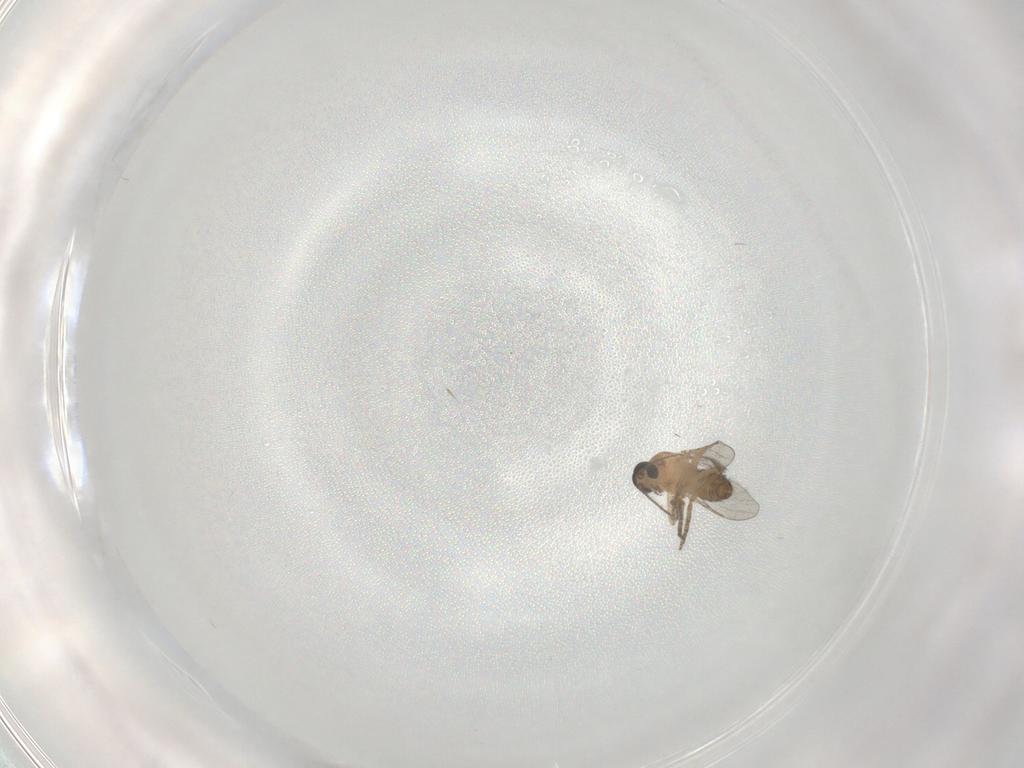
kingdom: Animalia
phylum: Arthropoda
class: Insecta
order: Diptera
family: Ceratopogonidae
